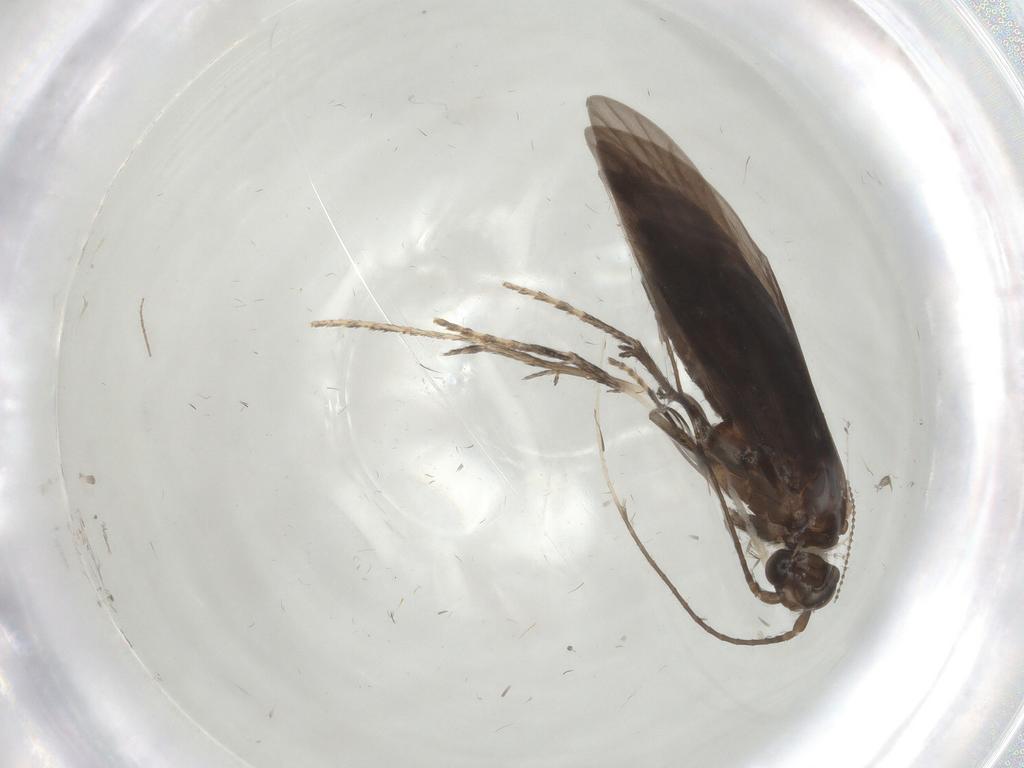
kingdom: Animalia
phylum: Arthropoda
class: Insecta
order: Trichoptera
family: Xiphocentronidae
